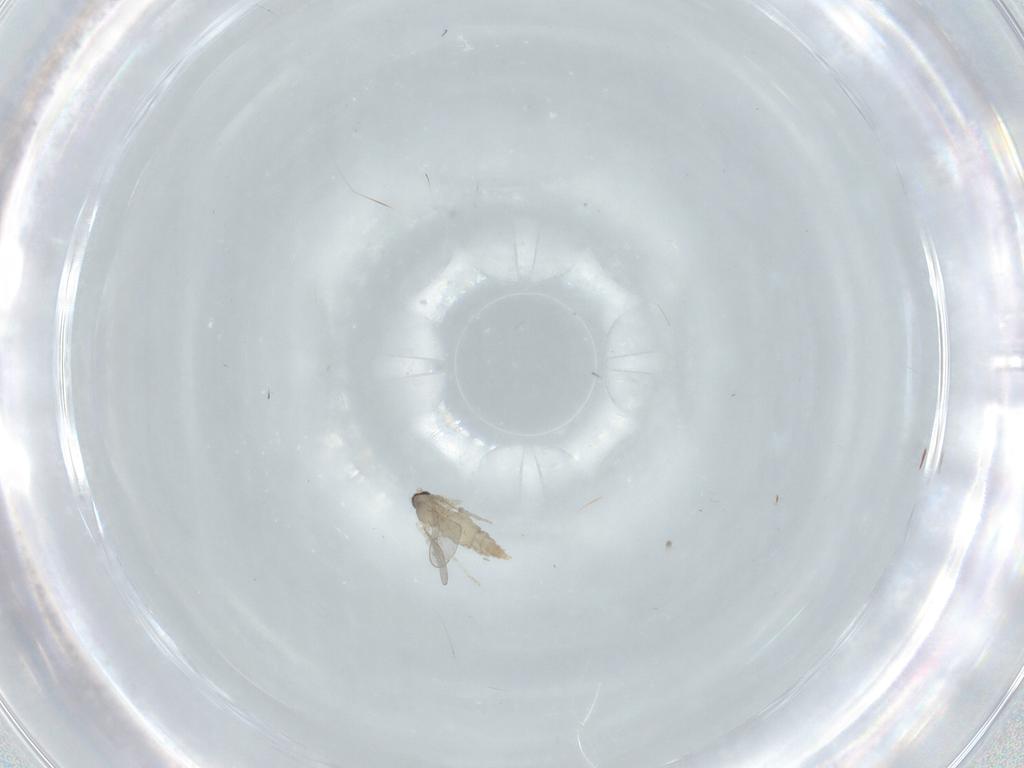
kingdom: Animalia
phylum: Arthropoda
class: Insecta
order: Diptera
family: Cecidomyiidae
